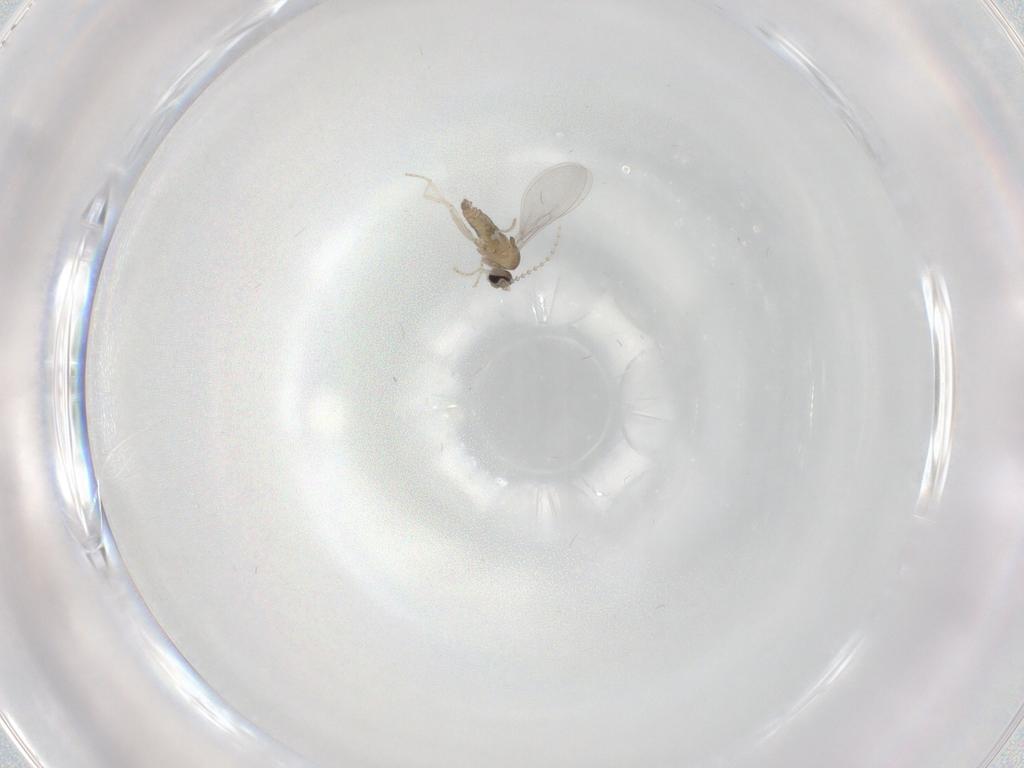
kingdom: Animalia
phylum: Arthropoda
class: Insecta
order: Diptera
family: Cecidomyiidae
